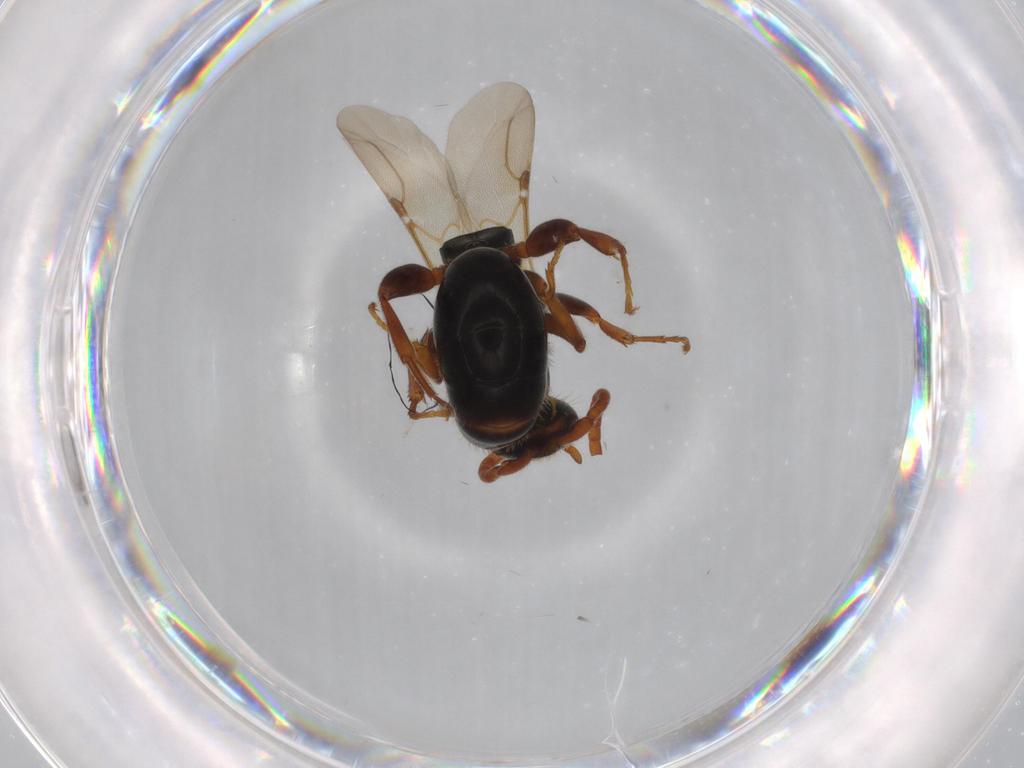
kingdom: Animalia
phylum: Arthropoda
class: Insecta
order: Hymenoptera
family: Bethylidae
